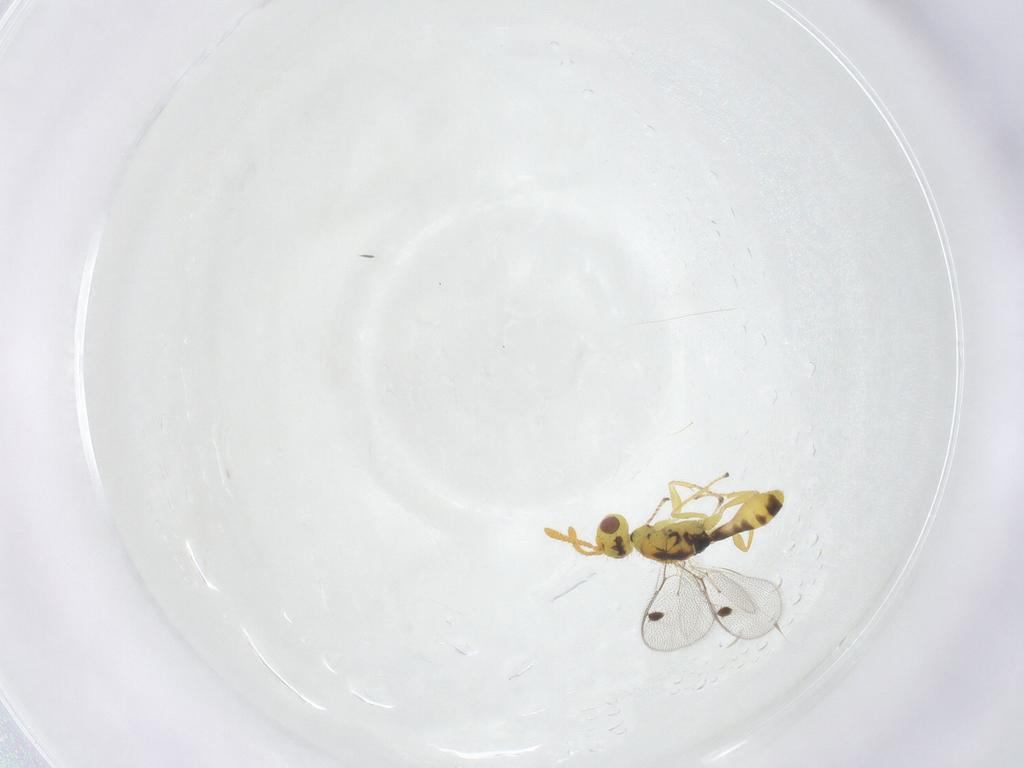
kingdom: Animalia
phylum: Arthropoda
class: Insecta
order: Hymenoptera
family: Megastigmidae
